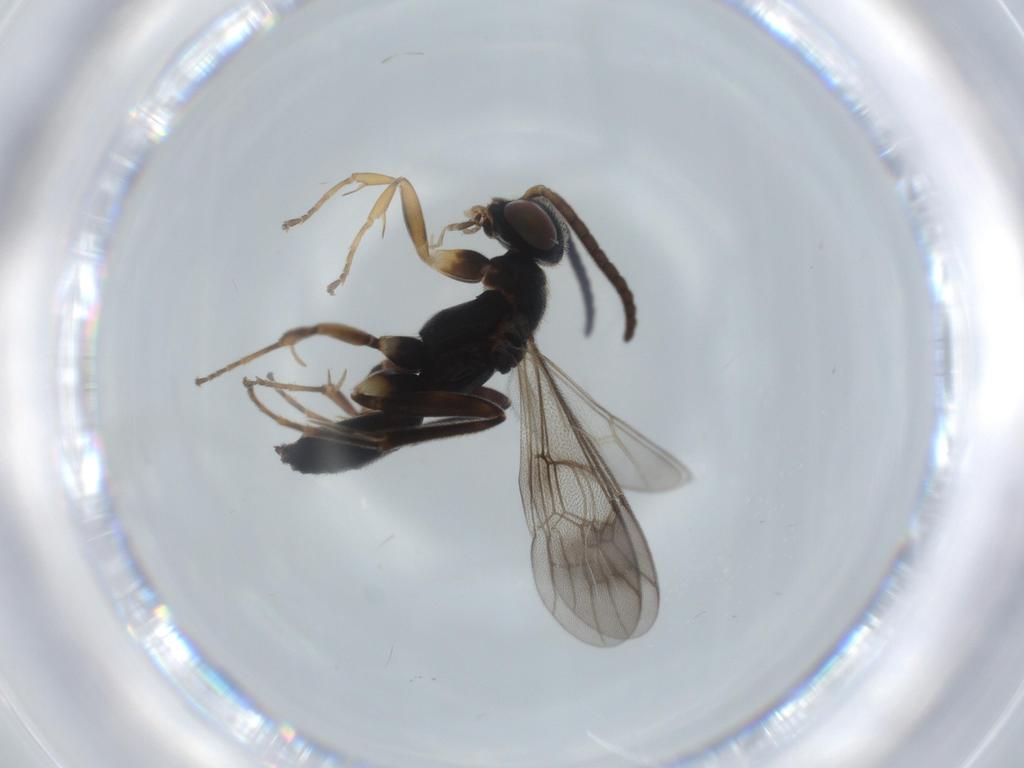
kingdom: Animalia
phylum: Arthropoda
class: Insecta
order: Hymenoptera
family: Pompilidae
